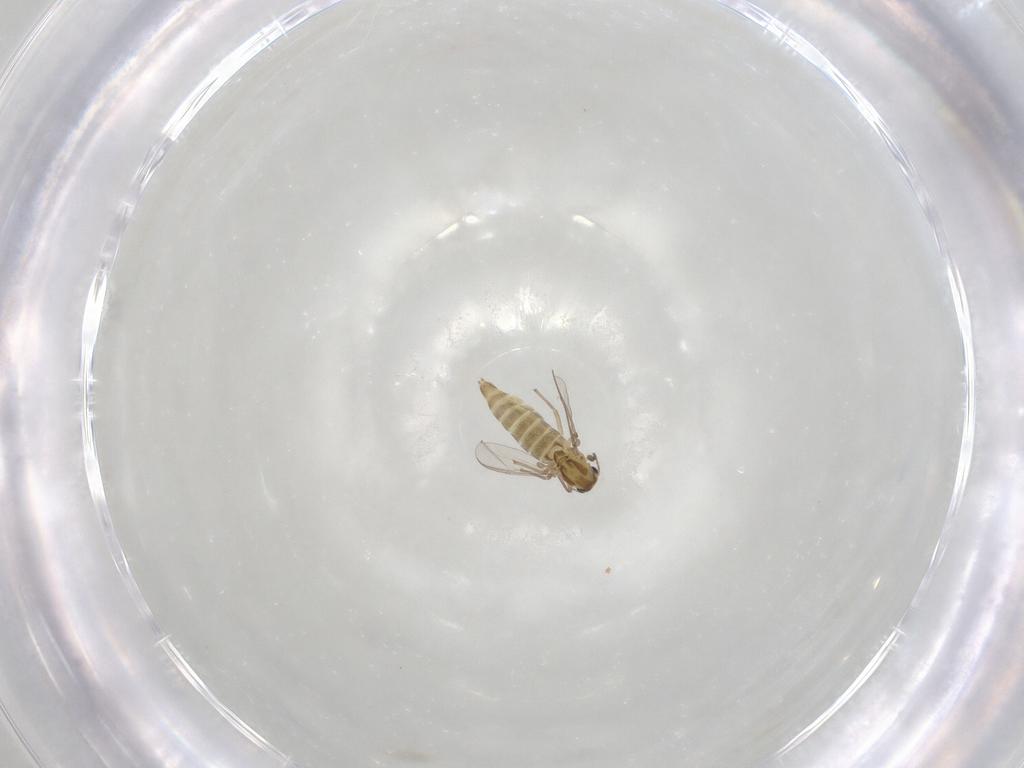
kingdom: Animalia
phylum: Arthropoda
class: Insecta
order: Diptera
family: Chironomidae
